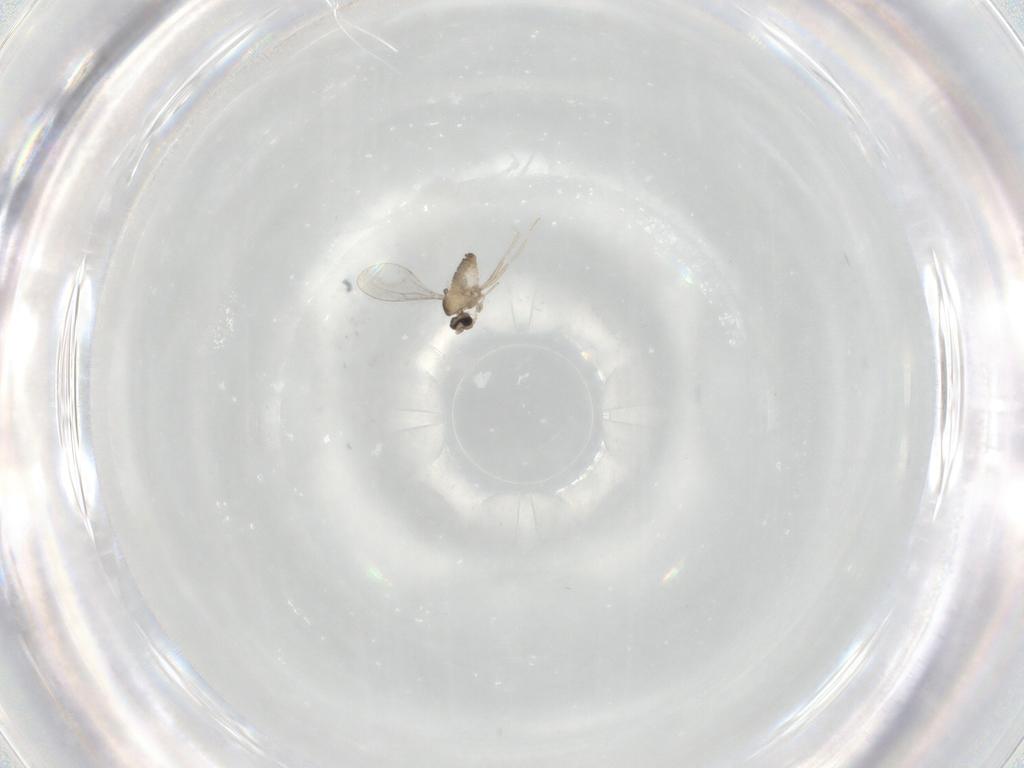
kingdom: Animalia
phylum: Arthropoda
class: Insecta
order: Diptera
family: Cecidomyiidae
